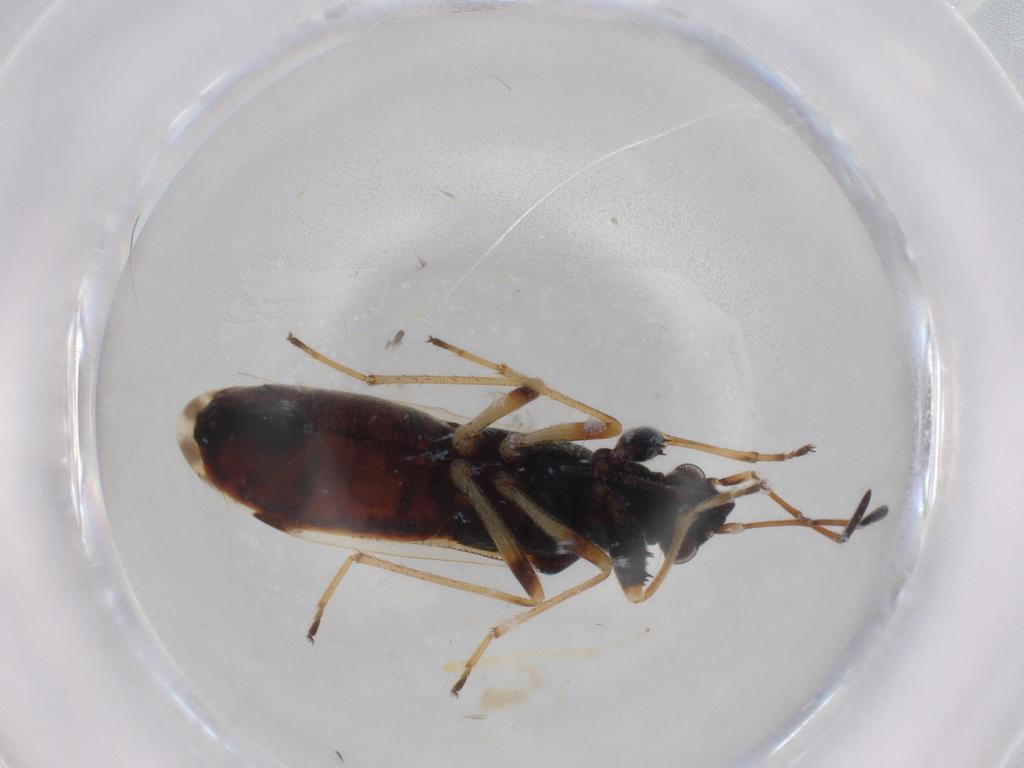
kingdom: Animalia
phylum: Arthropoda
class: Insecta
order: Hemiptera
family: Rhyparochromidae
